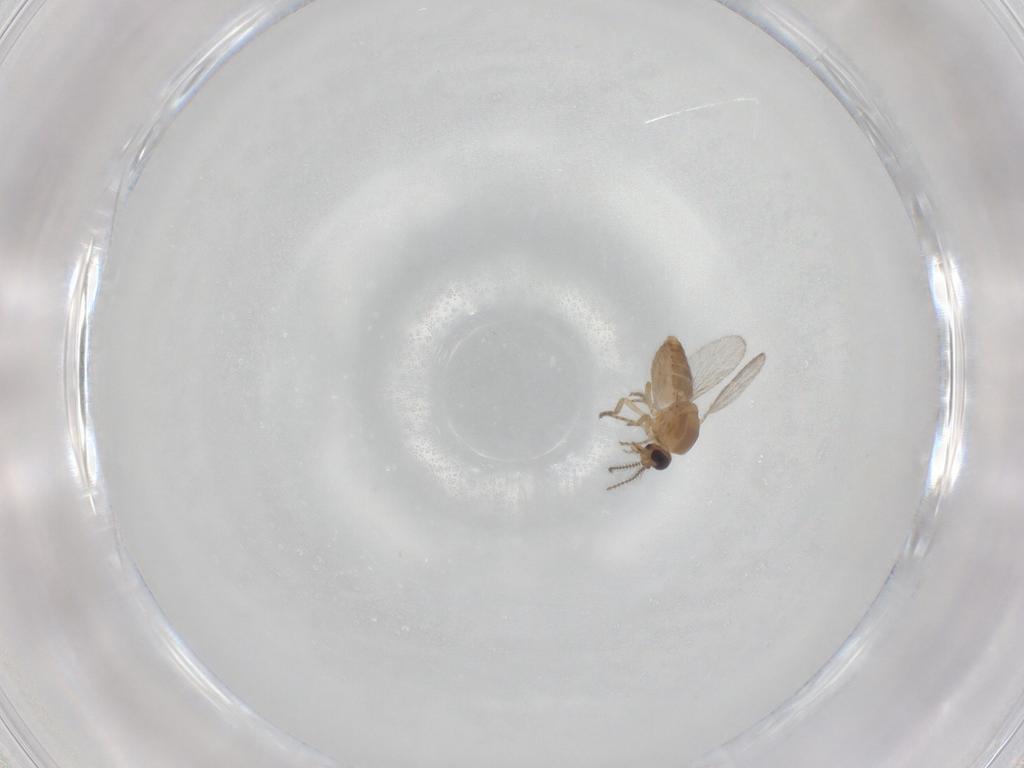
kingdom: Animalia
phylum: Arthropoda
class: Insecta
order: Diptera
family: Ceratopogonidae
